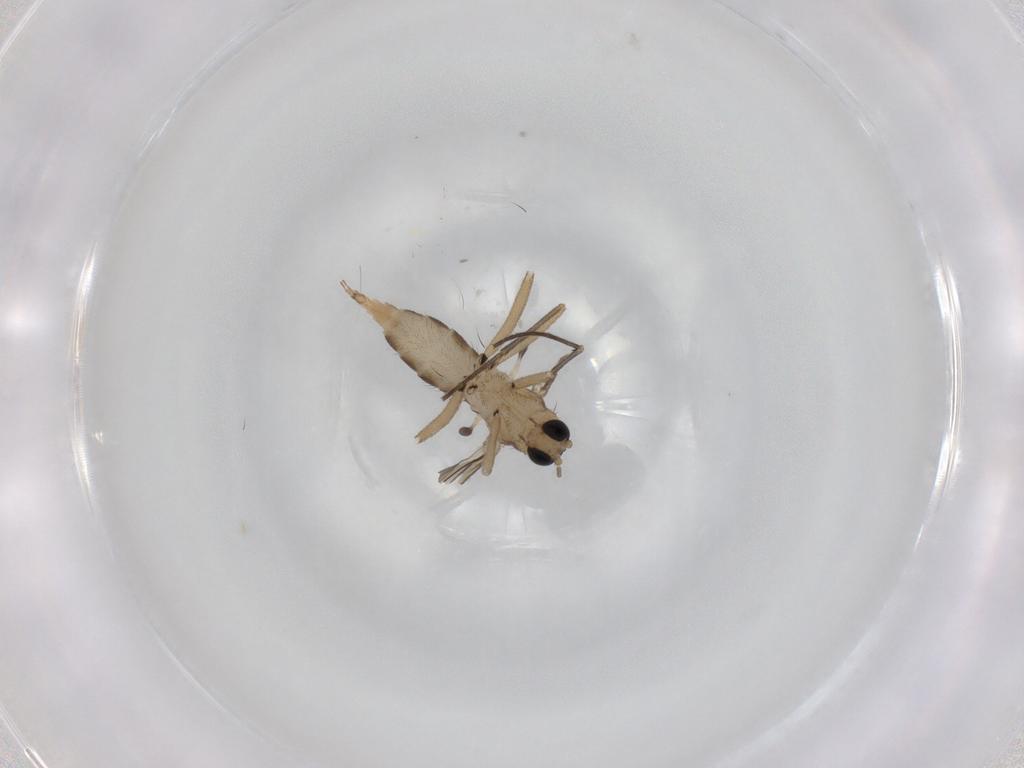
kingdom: Animalia
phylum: Arthropoda
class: Insecta
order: Diptera
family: Sciaridae
